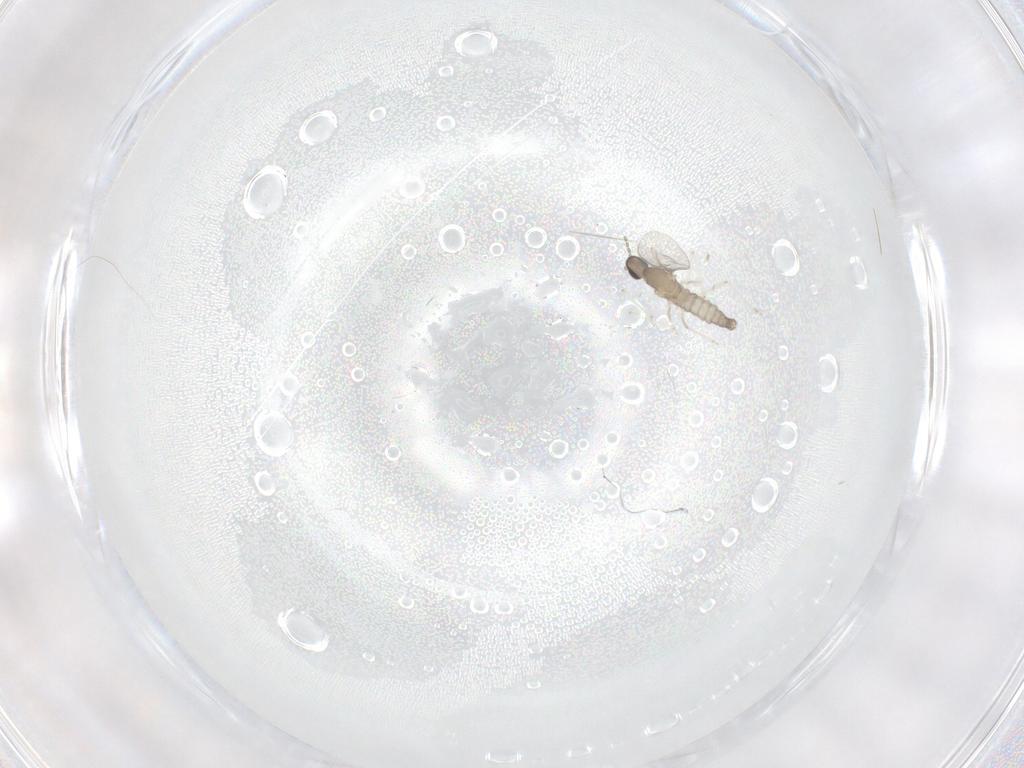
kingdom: Animalia
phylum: Arthropoda
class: Insecta
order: Diptera
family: Cecidomyiidae
